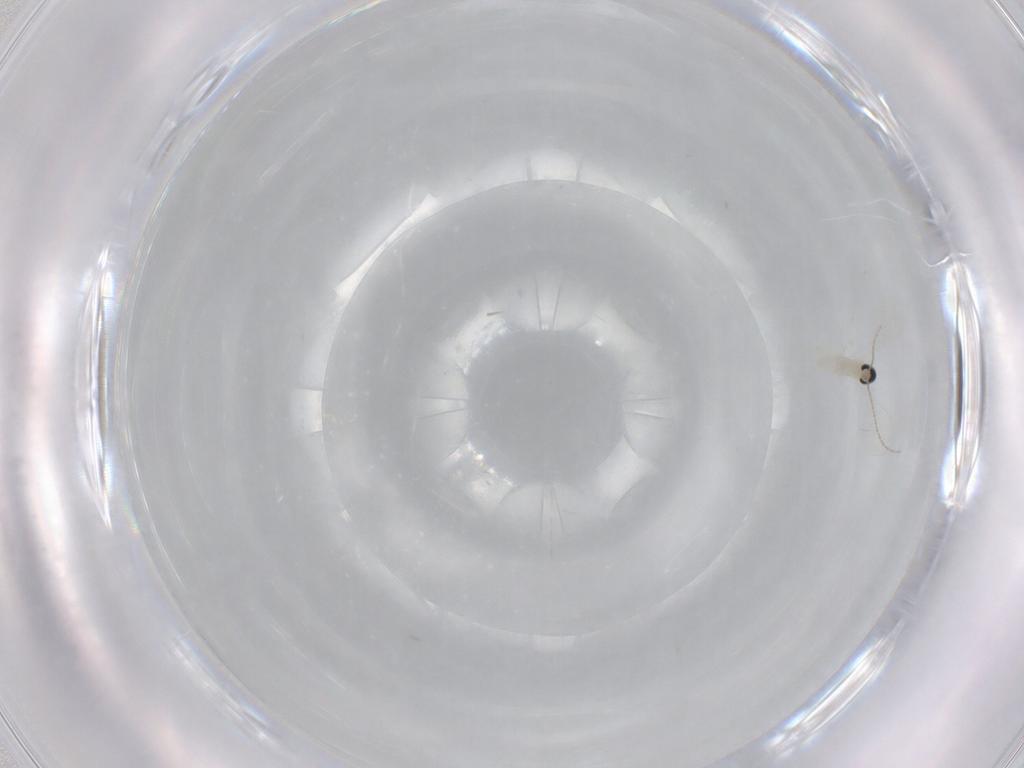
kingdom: Animalia
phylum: Arthropoda
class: Insecta
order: Diptera
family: Cecidomyiidae
